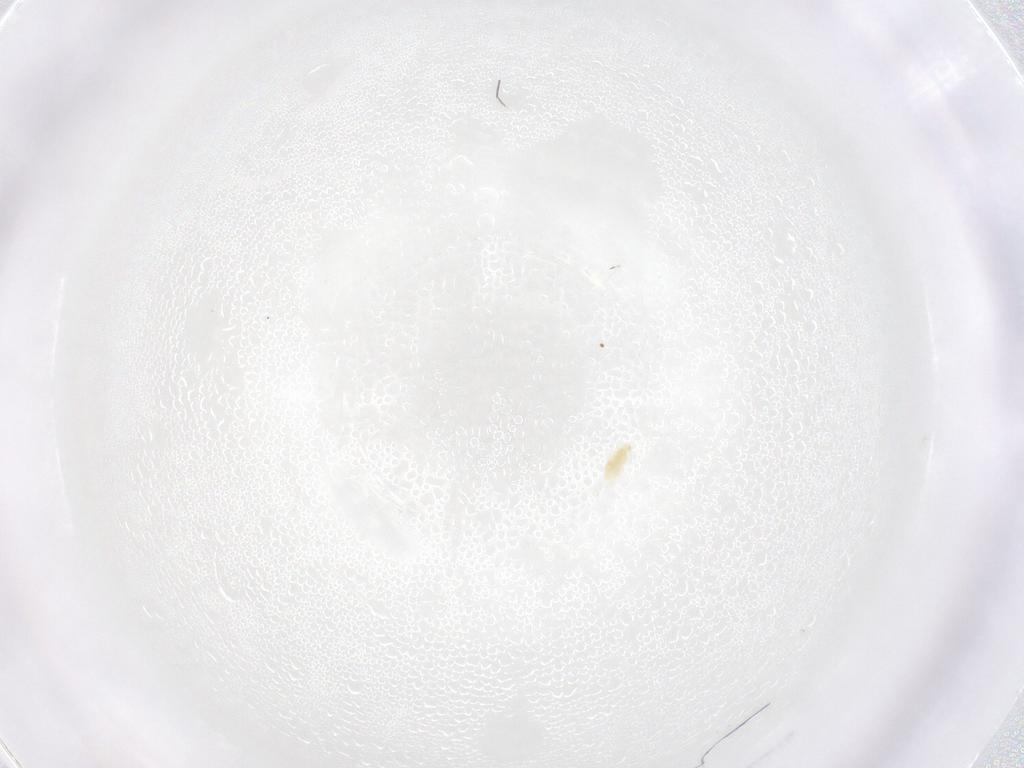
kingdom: Animalia
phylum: Arthropoda
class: Arachnida
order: Trombidiformes
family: Eupodidae
